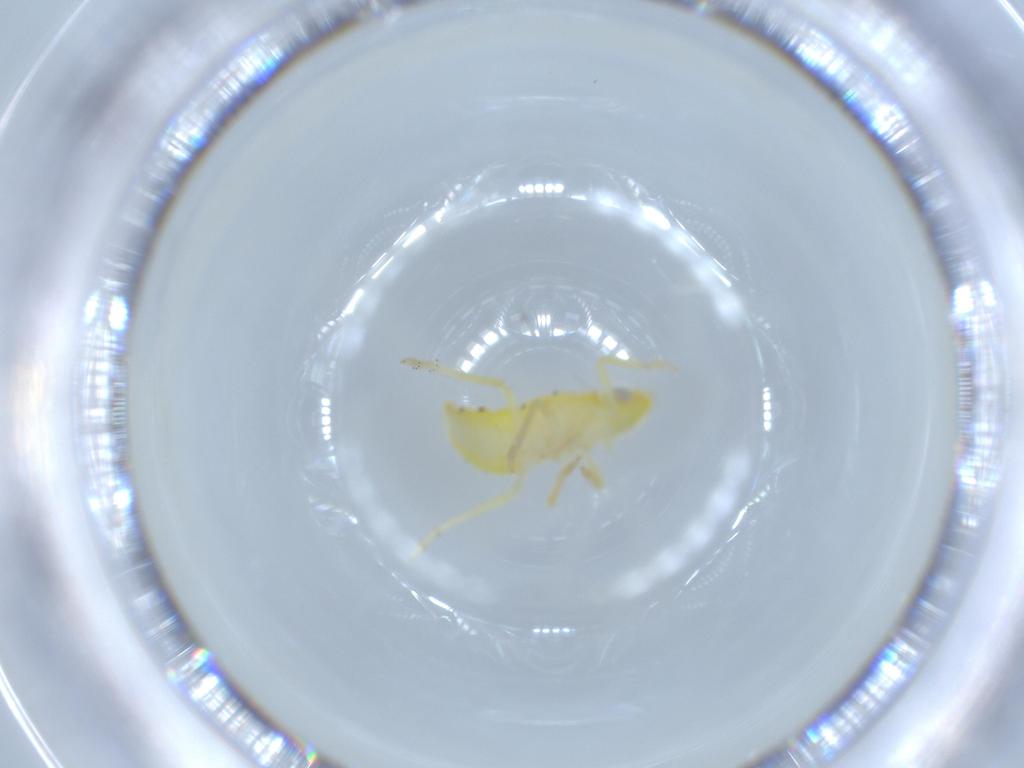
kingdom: Animalia
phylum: Arthropoda
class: Insecta
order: Hemiptera
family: Tropiduchidae
